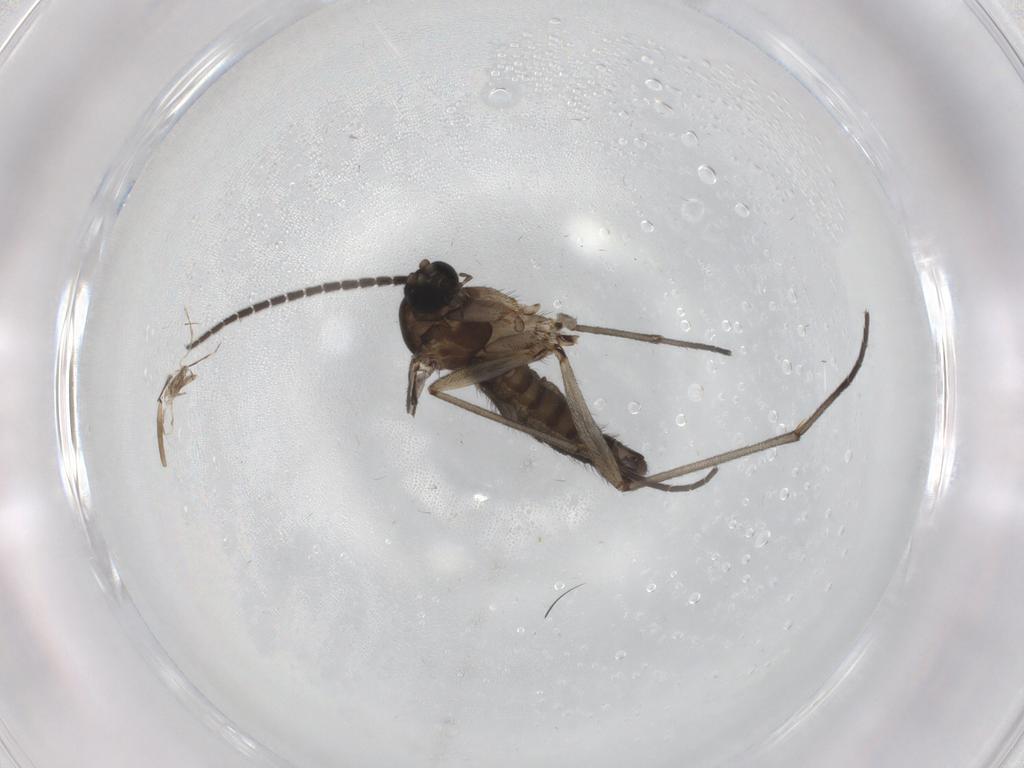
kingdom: Animalia
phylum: Arthropoda
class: Insecta
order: Diptera
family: Sciaridae
